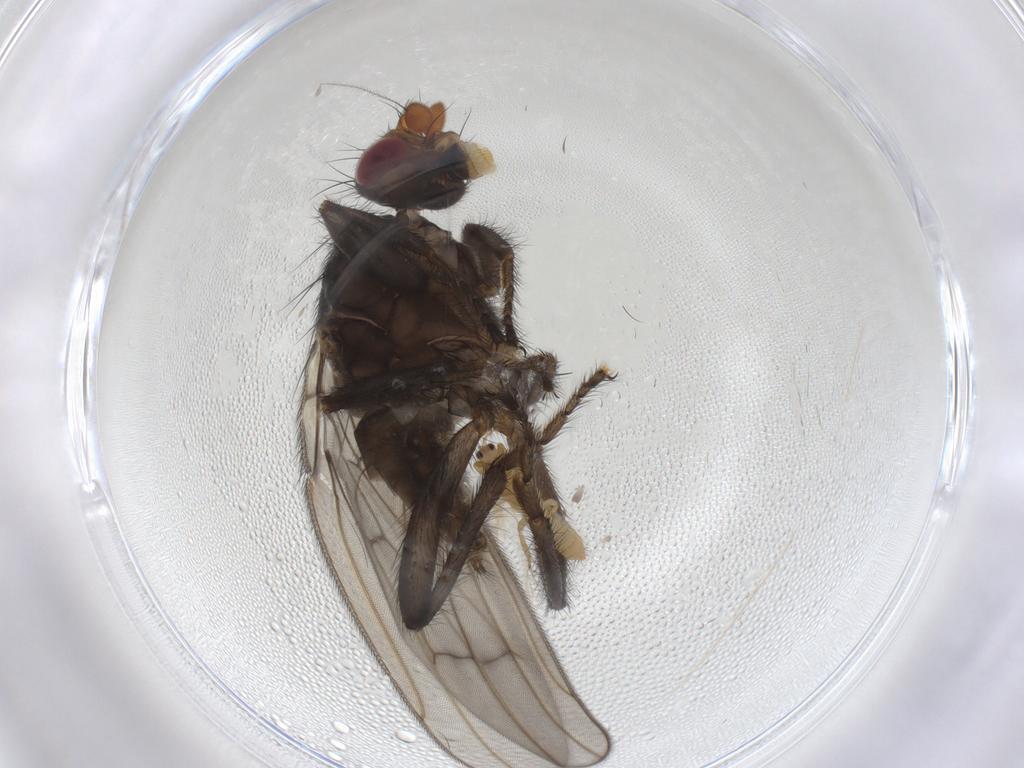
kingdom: Animalia
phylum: Arthropoda
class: Insecta
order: Diptera
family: Sphaeroceridae
